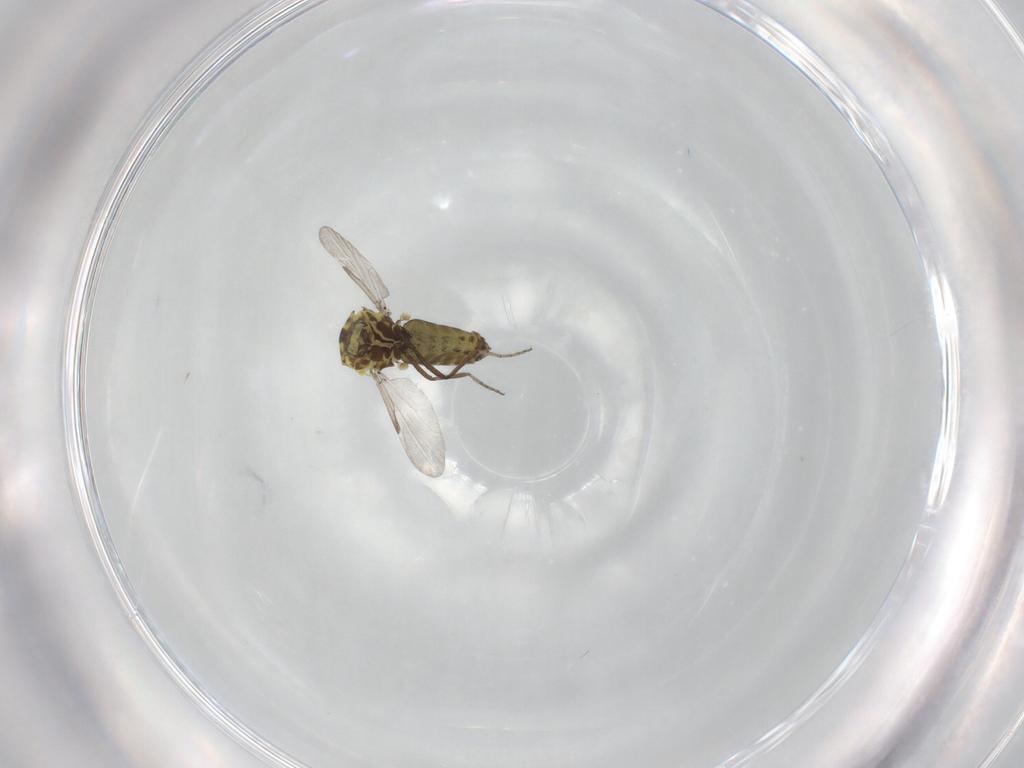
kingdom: Animalia
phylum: Arthropoda
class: Insecta
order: Diptera
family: Ceratopogonidae
